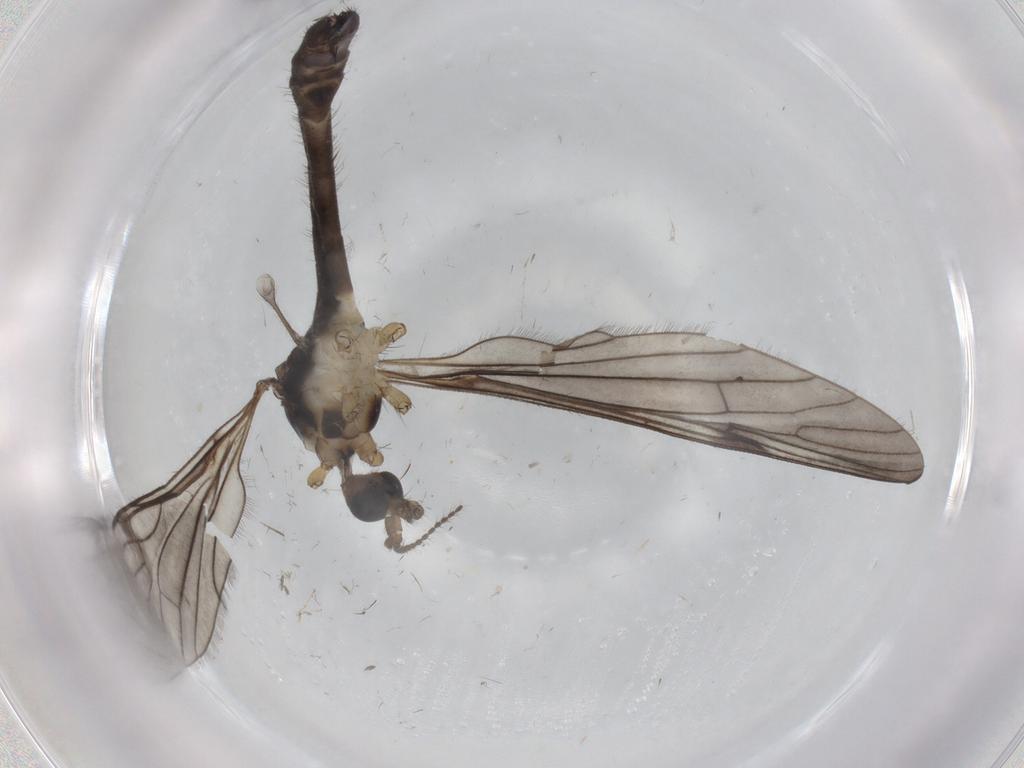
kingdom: Animalia
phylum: Arthropoda
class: Insecta
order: Diptera
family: Limoniidae
